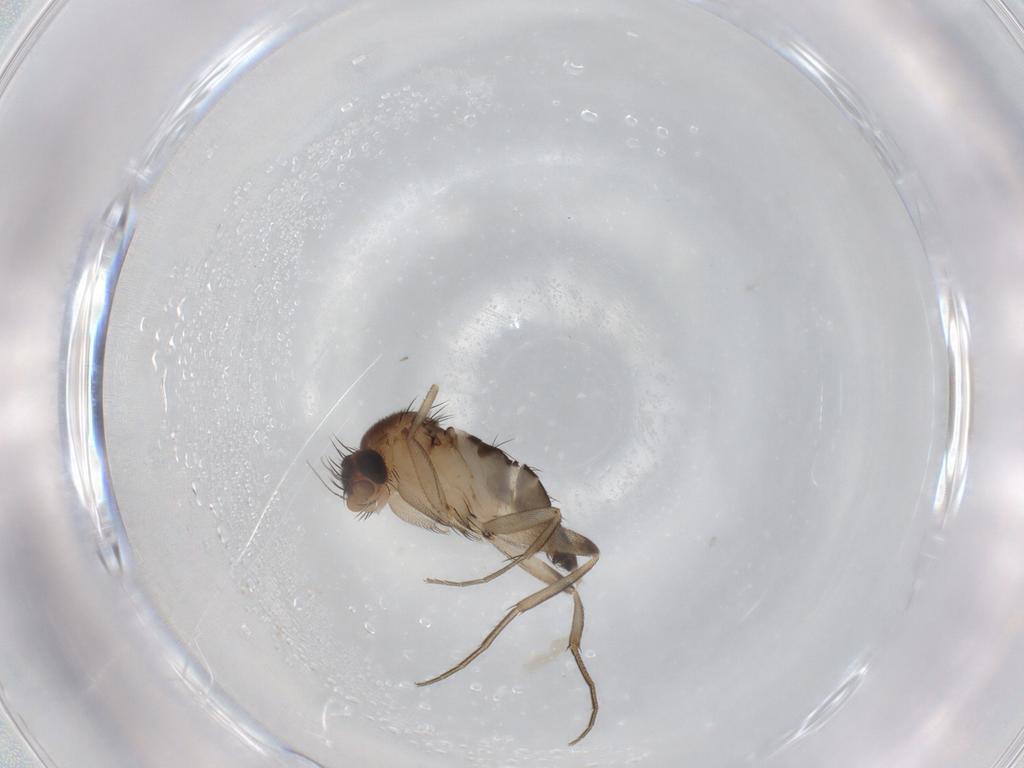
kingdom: Animalia
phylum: Arthropoda
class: Insecta
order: Diptera
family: Phoridae
